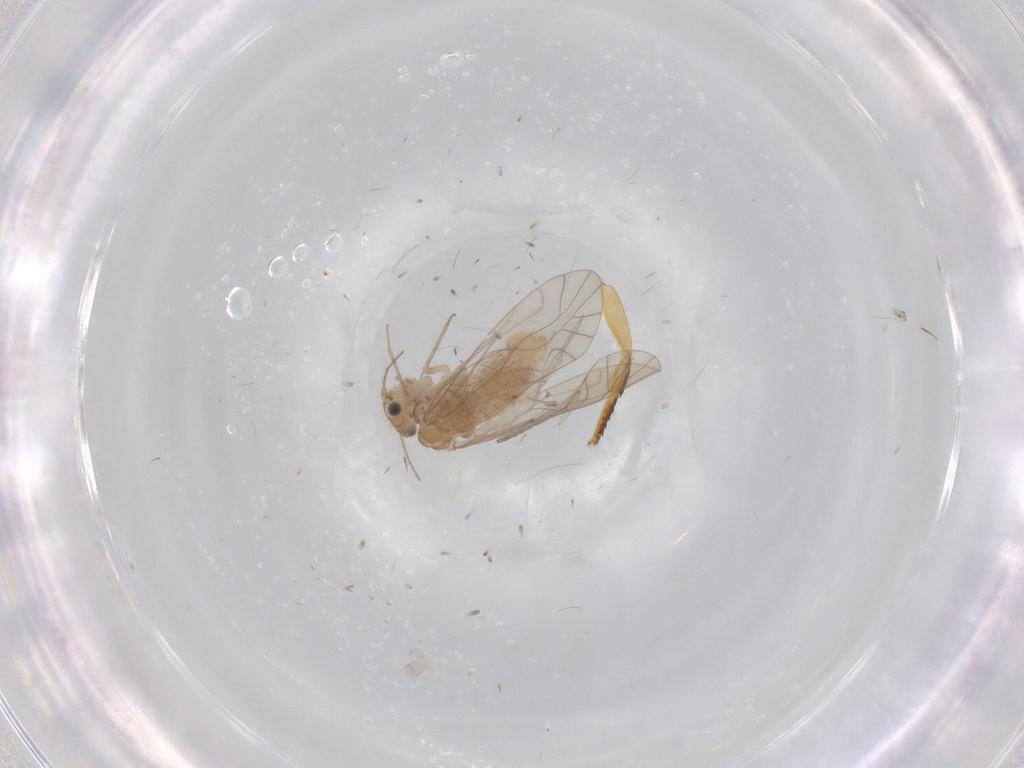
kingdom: Animalia
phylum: Arthropoda
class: Insecta
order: Psocodea
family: Lachesillidae
